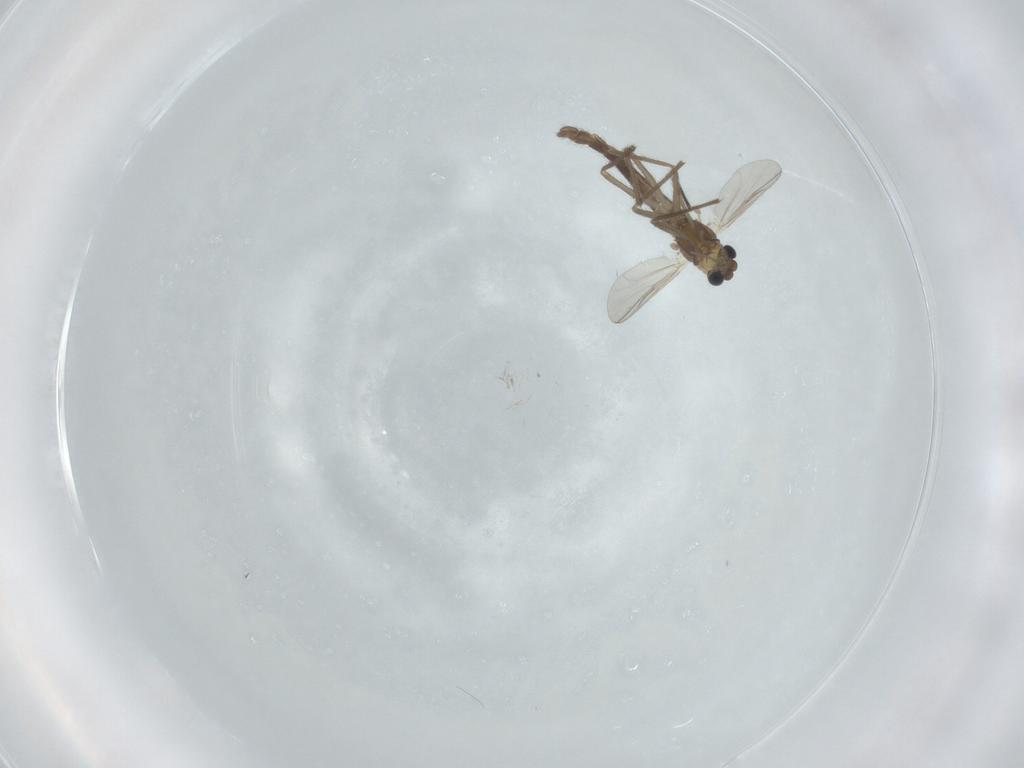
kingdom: Animalia
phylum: Arthropoda
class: Insecta
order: Diptera
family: Chironomidae
